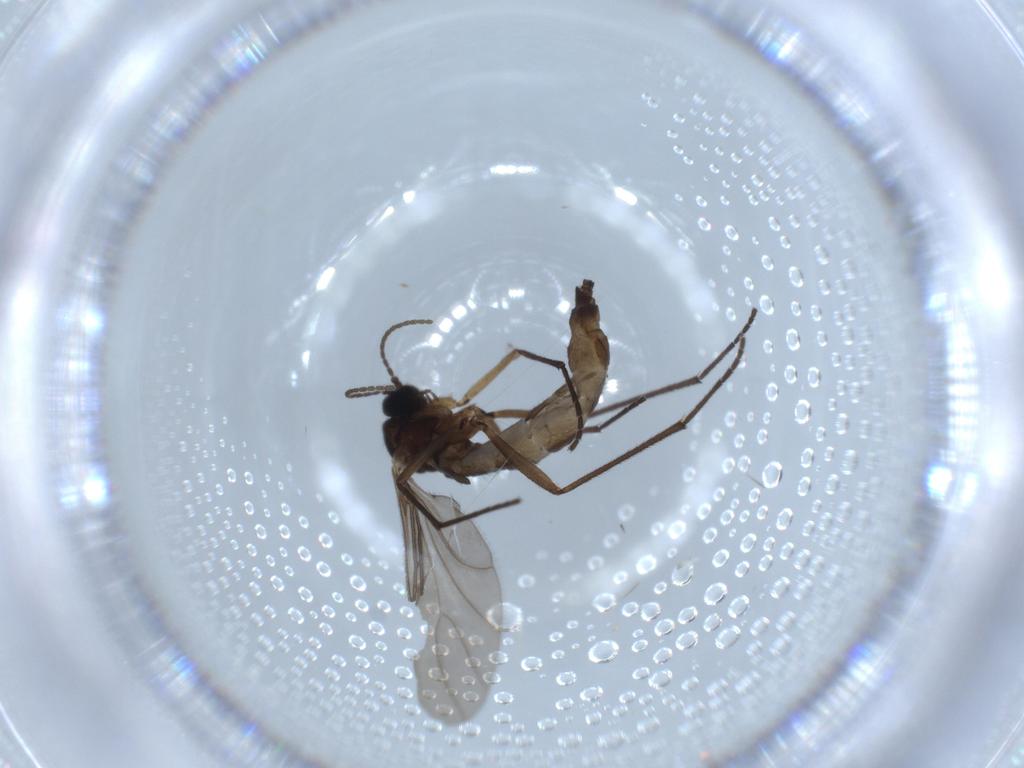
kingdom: Animalia
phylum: Arthropoda
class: Insecta
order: Diptera
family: Sciaridae
